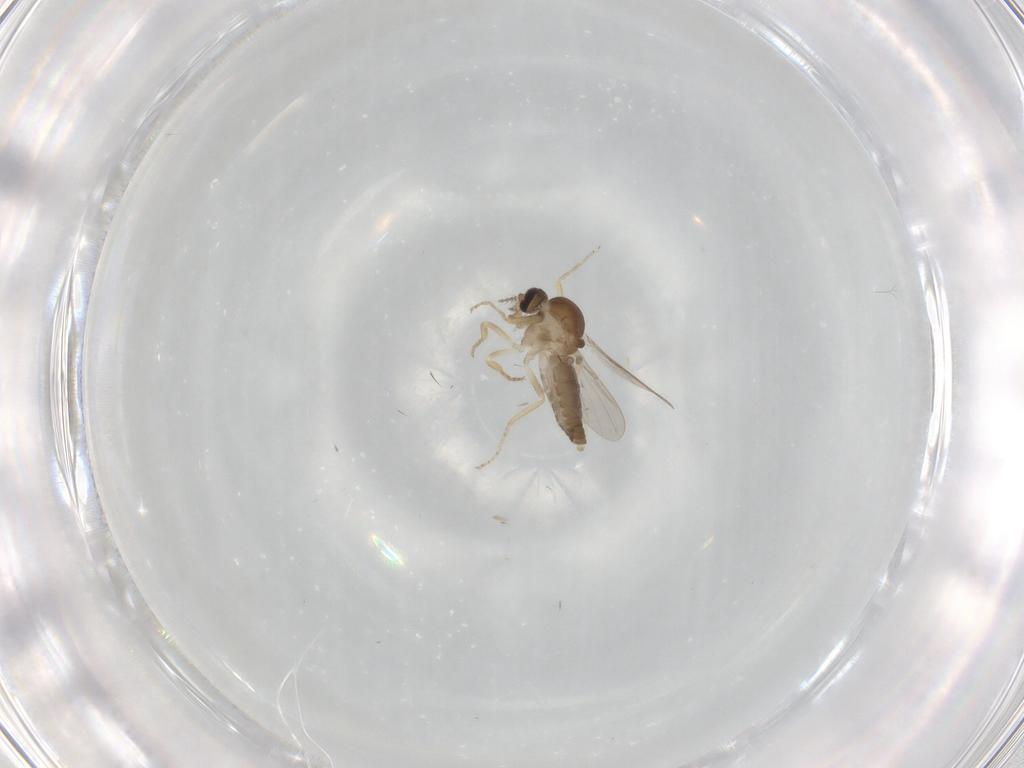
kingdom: Animalia
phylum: Arthropoda
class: Insecta
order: Diptera
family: Ceratopogonidae
